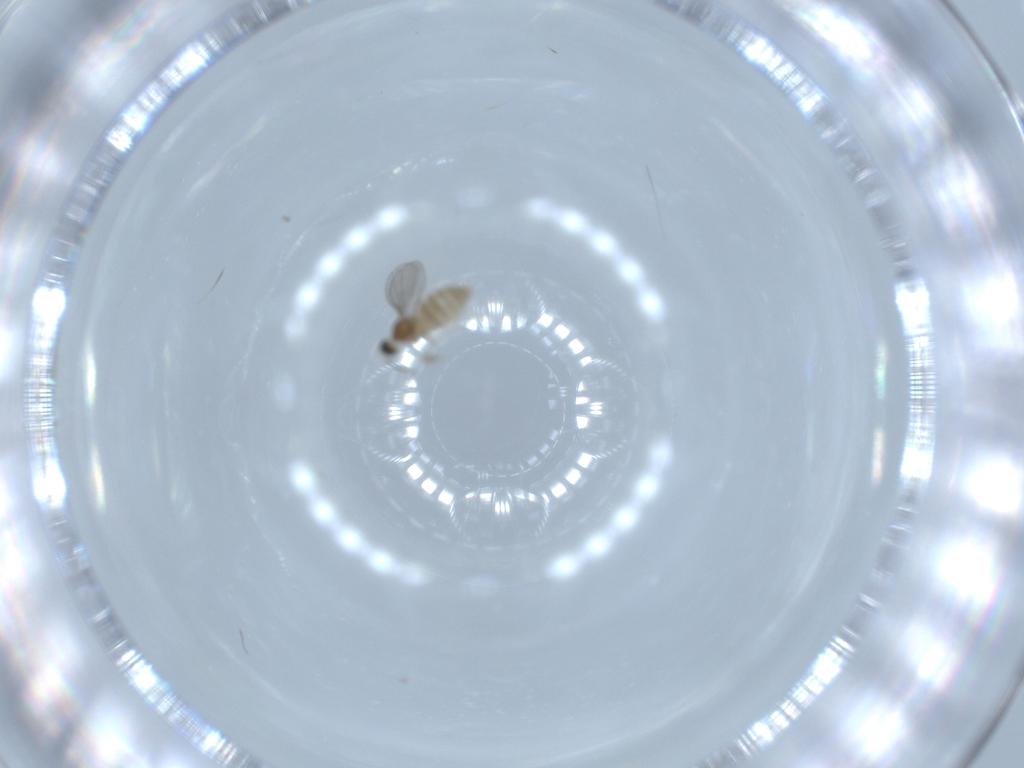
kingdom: Animalia
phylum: Arthropoda
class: Insecta
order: Diptera
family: Cecidomyiidae
